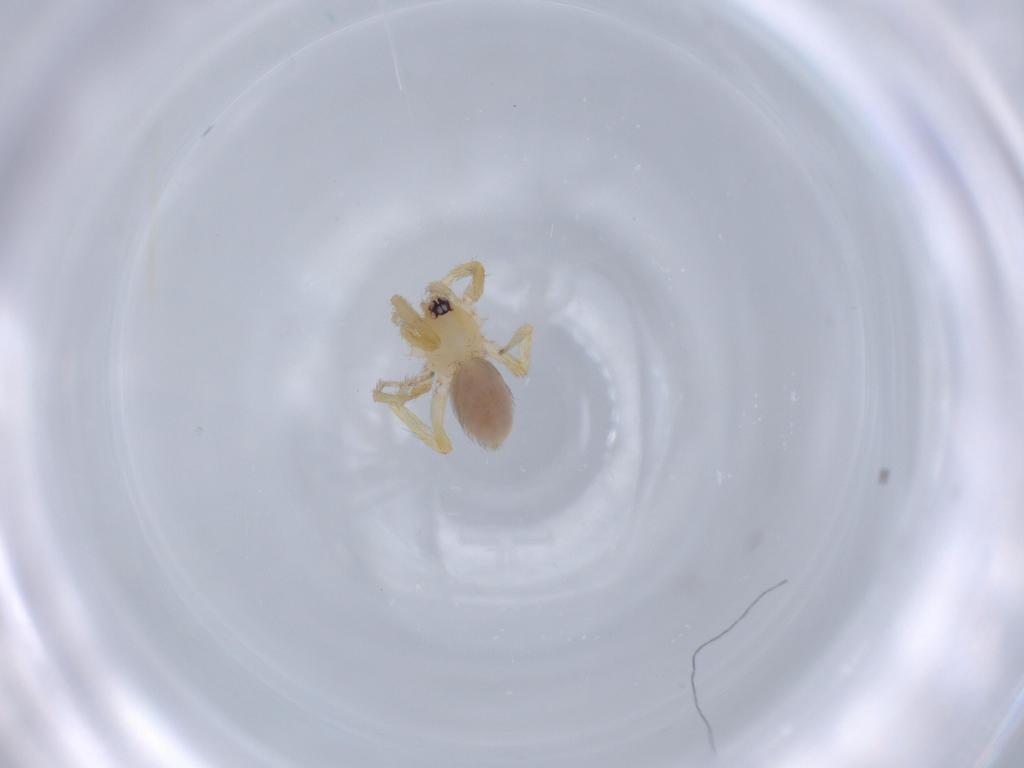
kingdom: Animalia
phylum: Arthropoda
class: Arachnida
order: Araneae
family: Oonopidae
